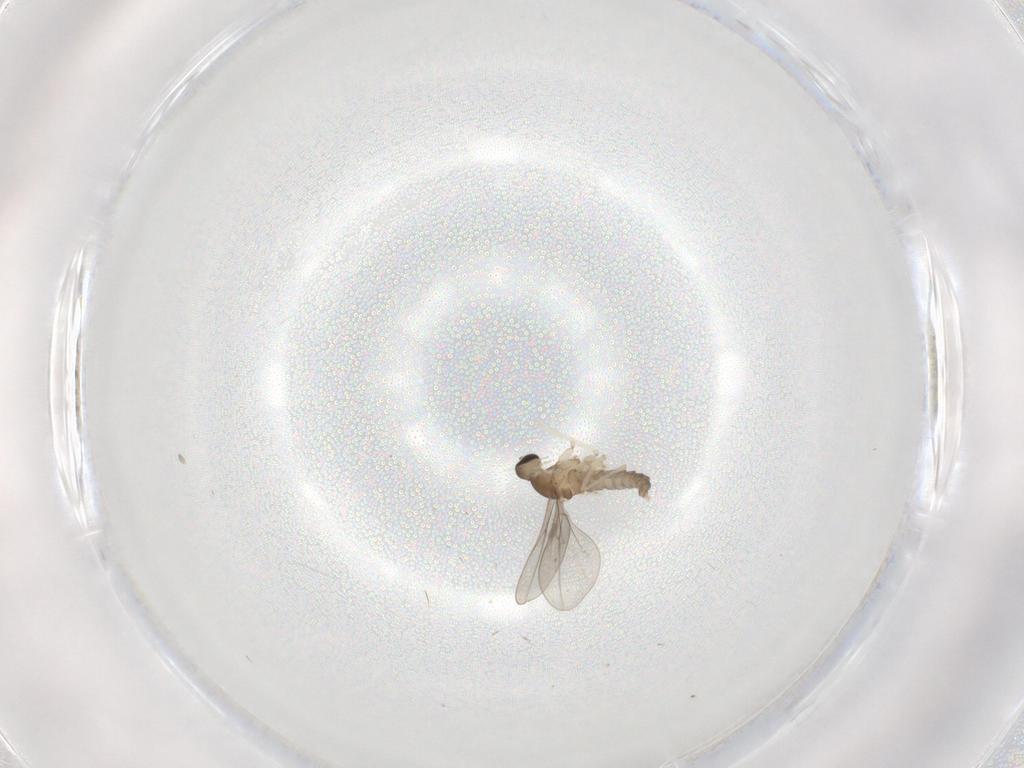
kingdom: Animalia
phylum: Arthropoda
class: Insecta
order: Diptera
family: Cecidomyiidae
